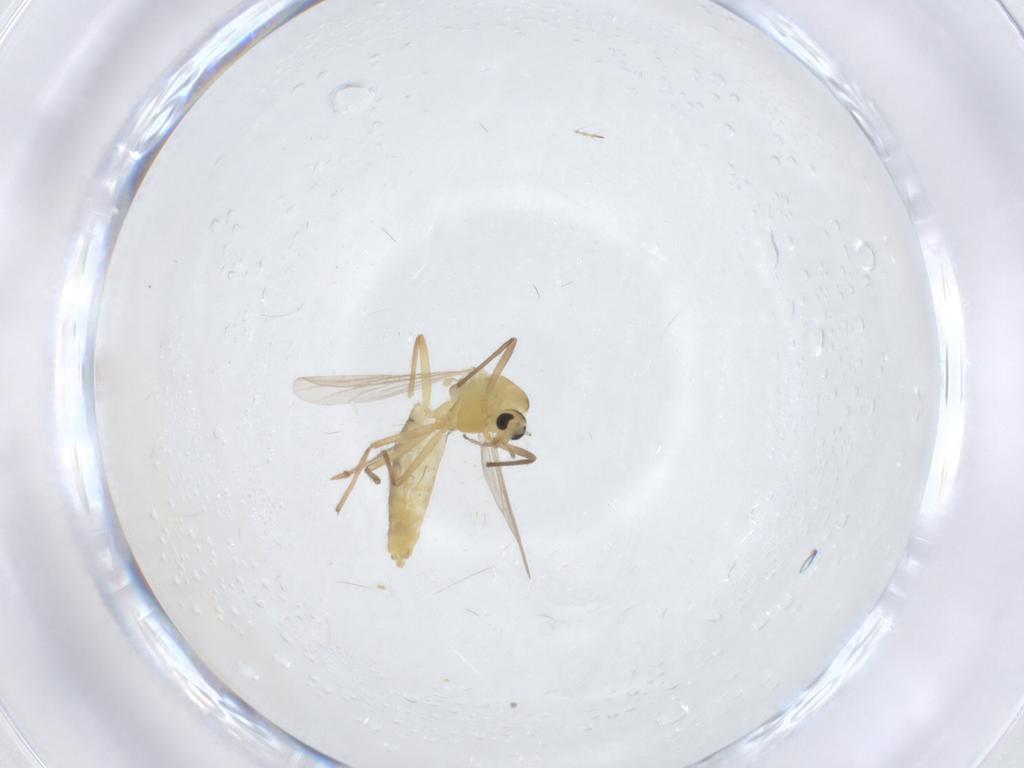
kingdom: Animalia
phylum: Arthropoda
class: Insecta
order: Diptera
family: Chironomidae
